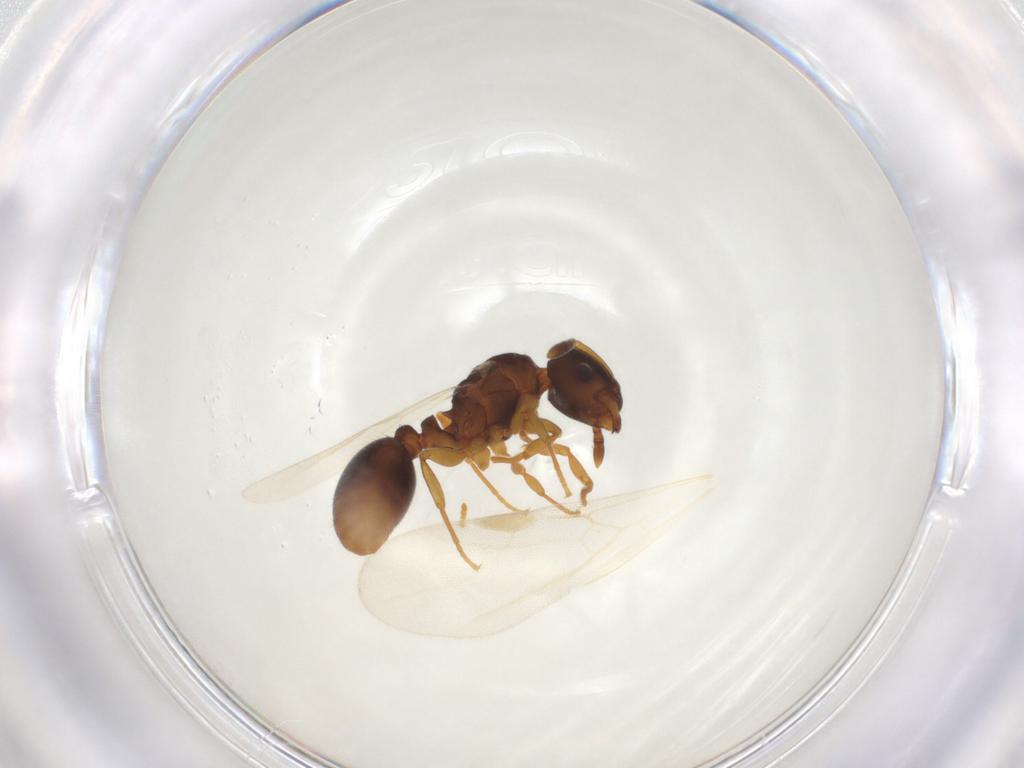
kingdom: Animalia
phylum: Arthropoda
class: Insecta
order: Hymenoptera
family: Formicidae
